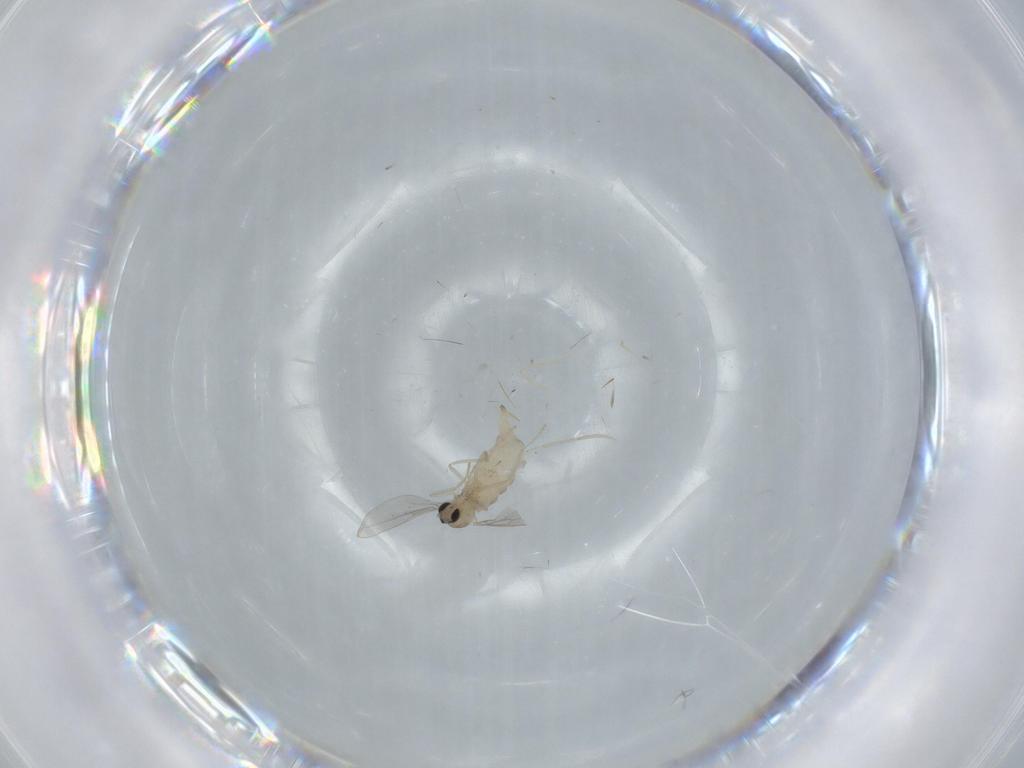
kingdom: Animalia
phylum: Arthropoda
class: Insecta
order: Diptera
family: Cecidomyiidae
